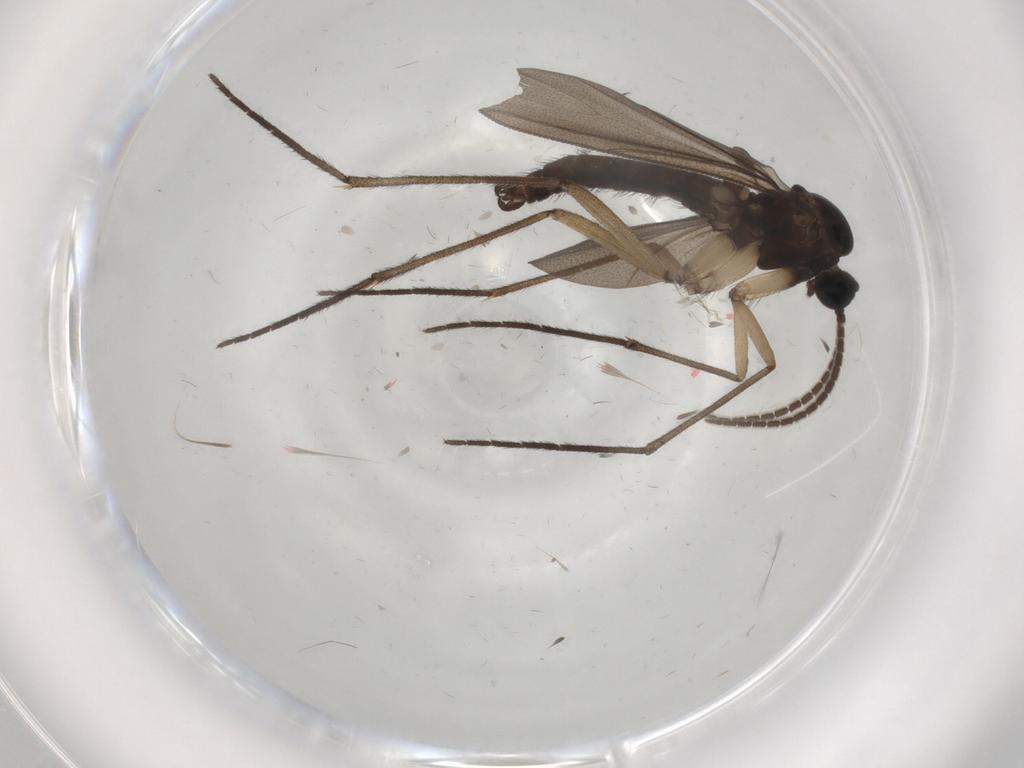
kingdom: Animalia
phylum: Arthropoda
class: Insecta
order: Diptera
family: Sciaridae
